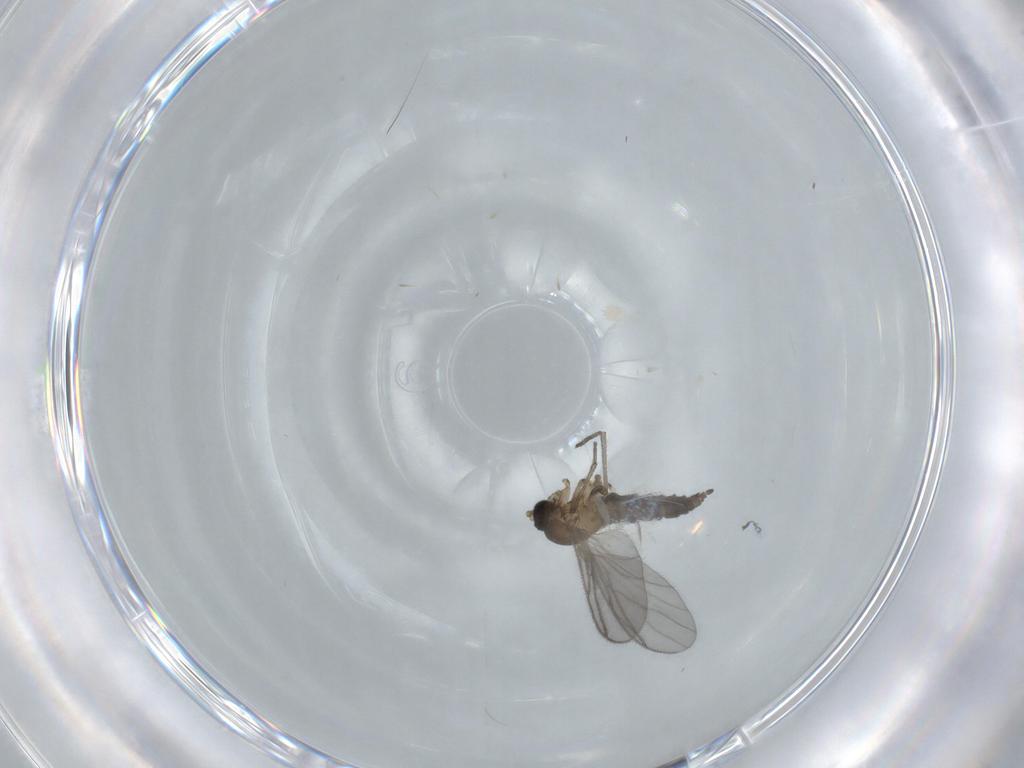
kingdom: Animalia
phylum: Arthropoda
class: Insecta
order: Diptera
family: Sciaridae
